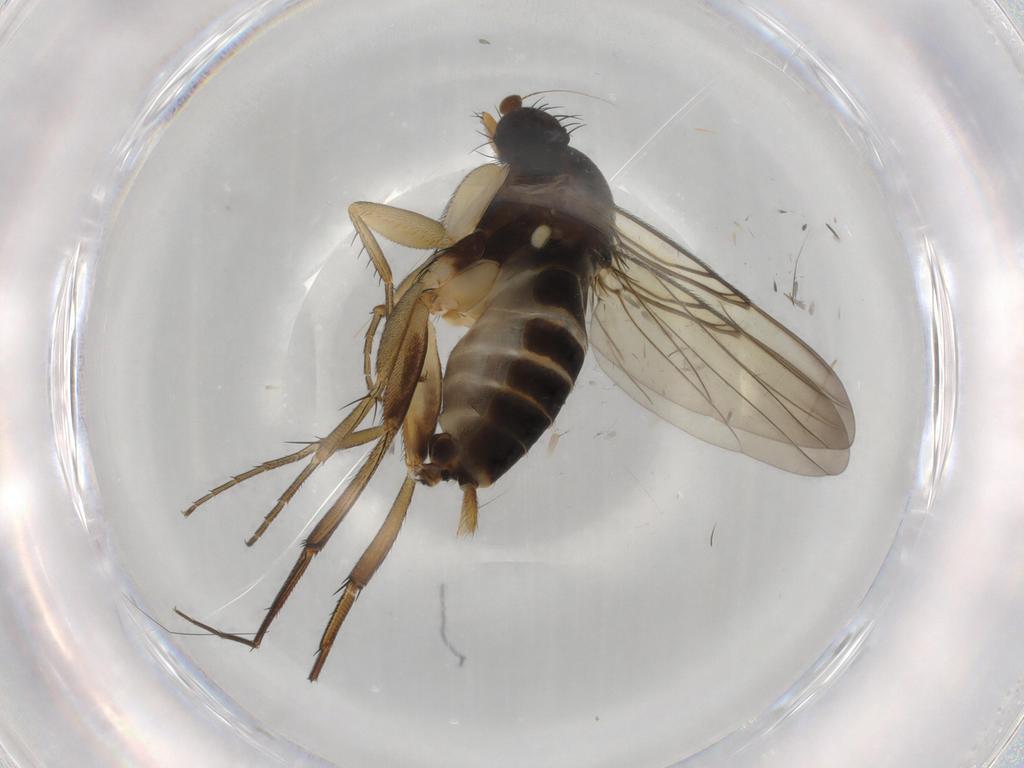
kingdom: Animalia
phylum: Arthropoda
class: Insecta
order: Diptera
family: Phoridae
